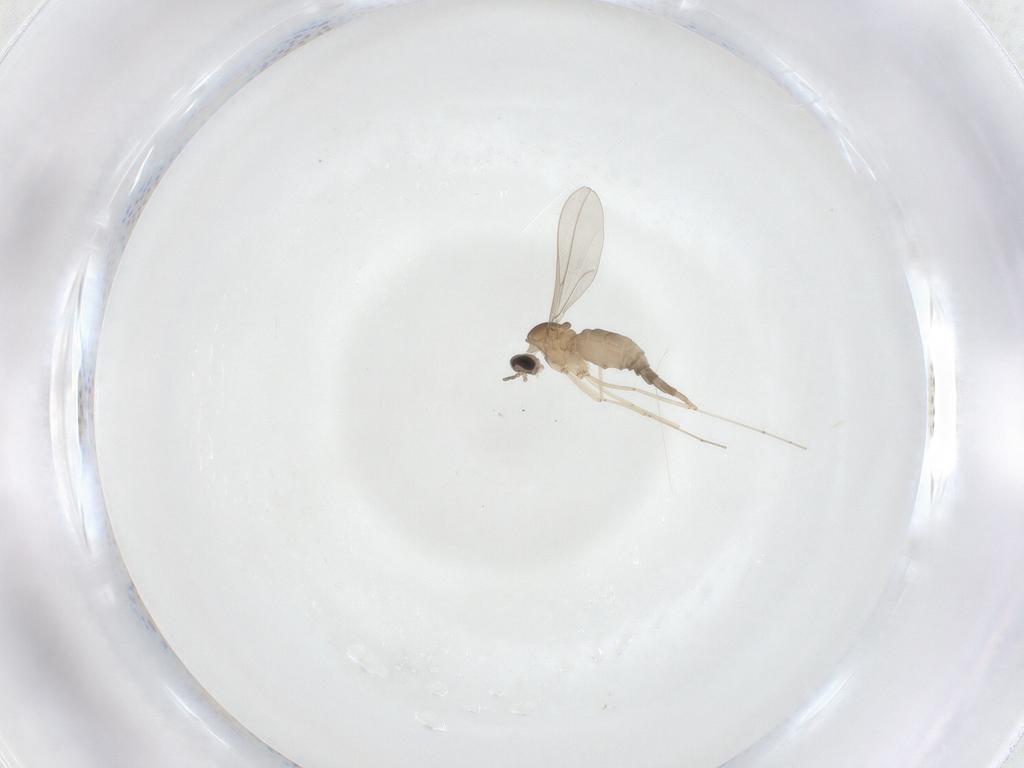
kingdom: Animalia
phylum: Arthropoda
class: Insecta
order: Diptera
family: Cecidomyiidae
